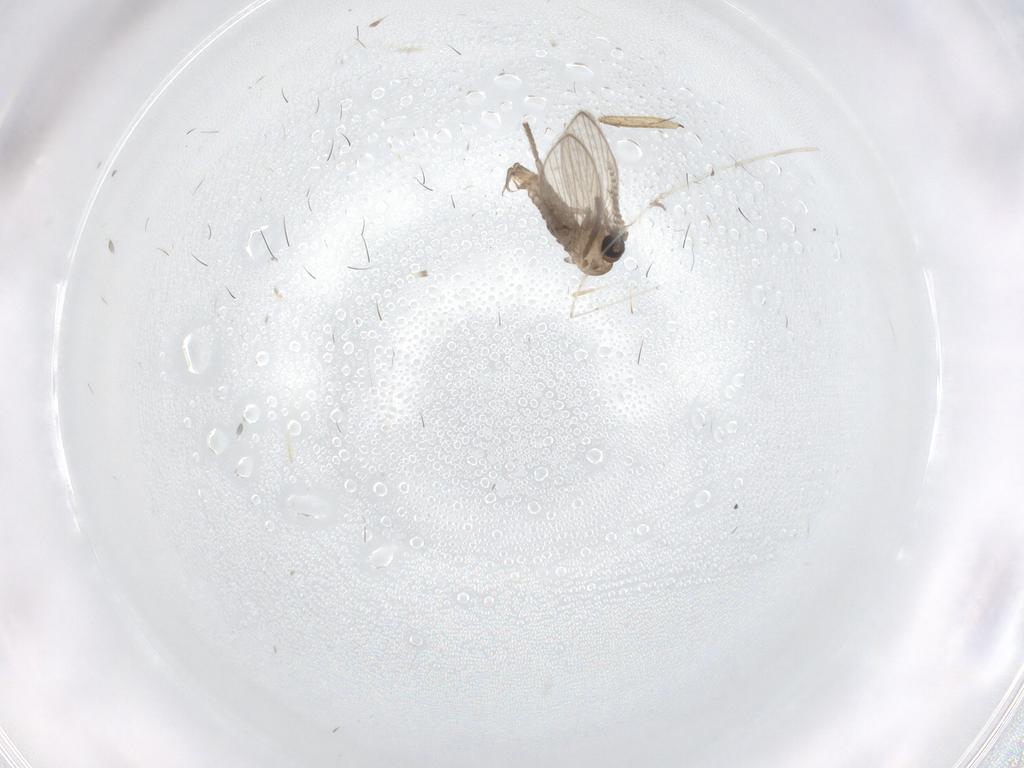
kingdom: Animalia
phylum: Arthropoda
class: Insecta
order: Diptera
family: Psychodidae
